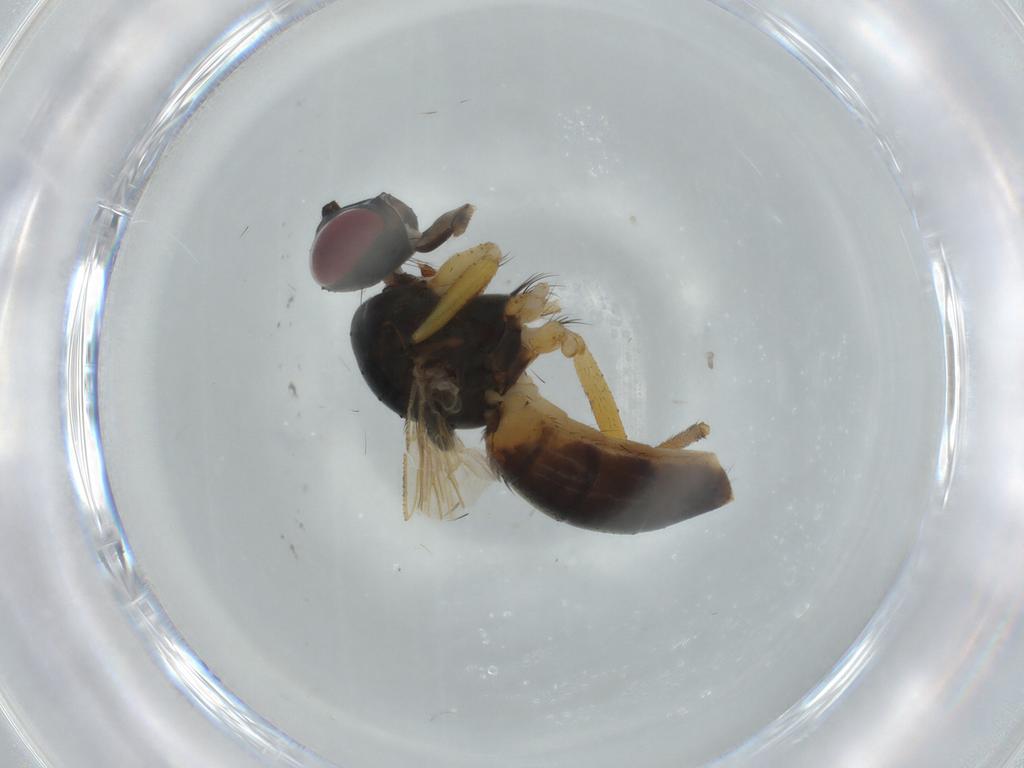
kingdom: Animalia
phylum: Arthropoda
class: Insecta
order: Diptera
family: Muscidae
